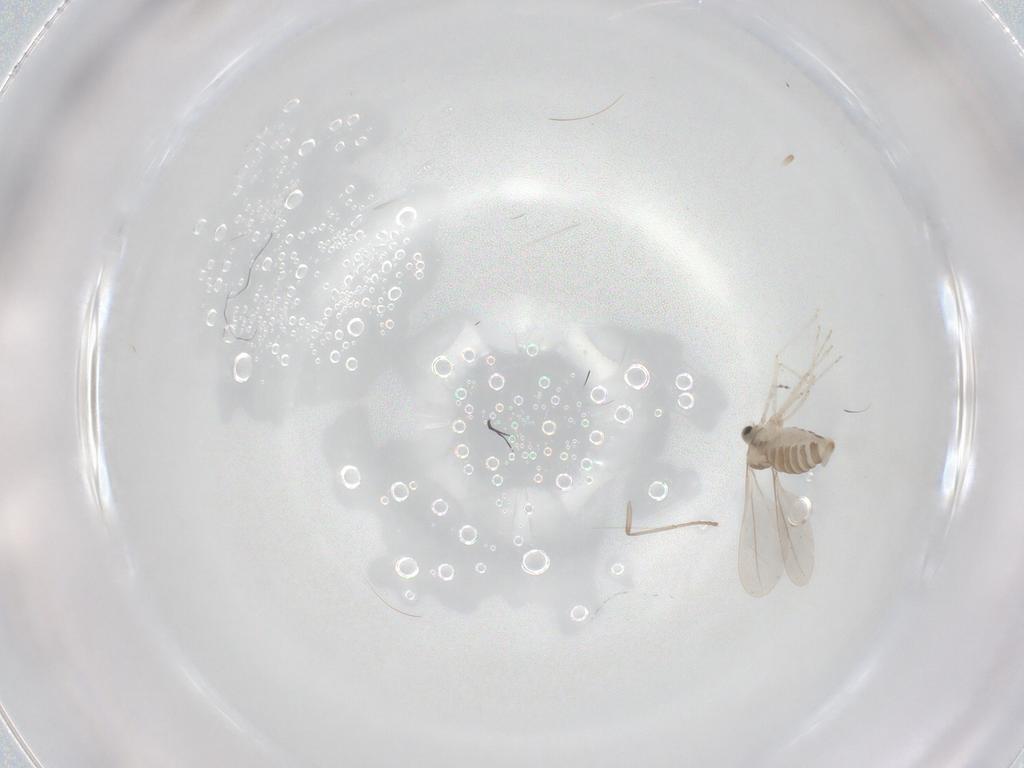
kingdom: Animalia
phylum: Arthropoda
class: Insecta
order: Diptera
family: Cecidomyiidae
